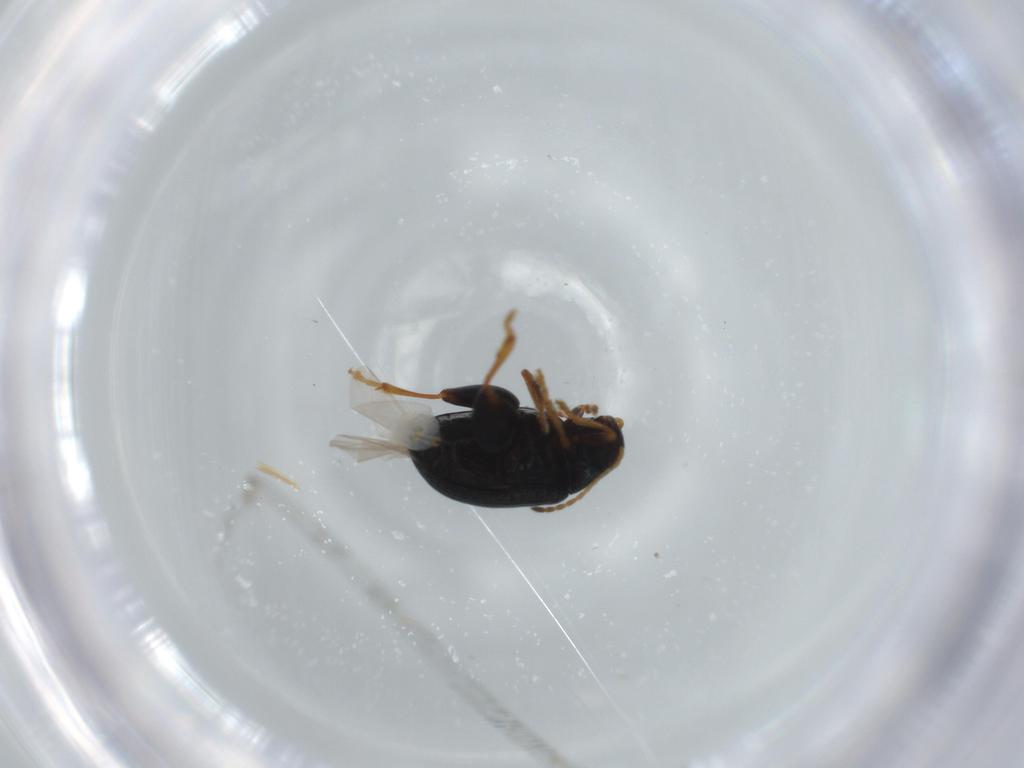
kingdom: Animalia
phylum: Arthropoda
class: Insecta
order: Coleoptera
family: Chrysomelidae
